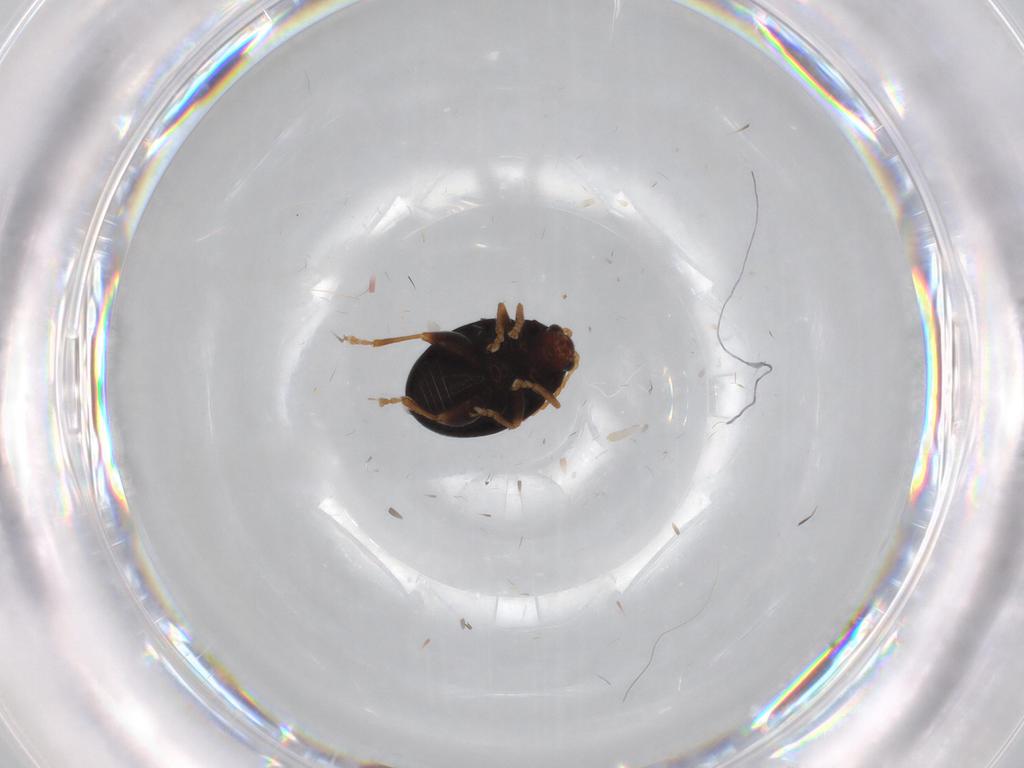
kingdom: Animalia
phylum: Arthropoda
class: Insecta
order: Coleoptera
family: Chrysomelidae
